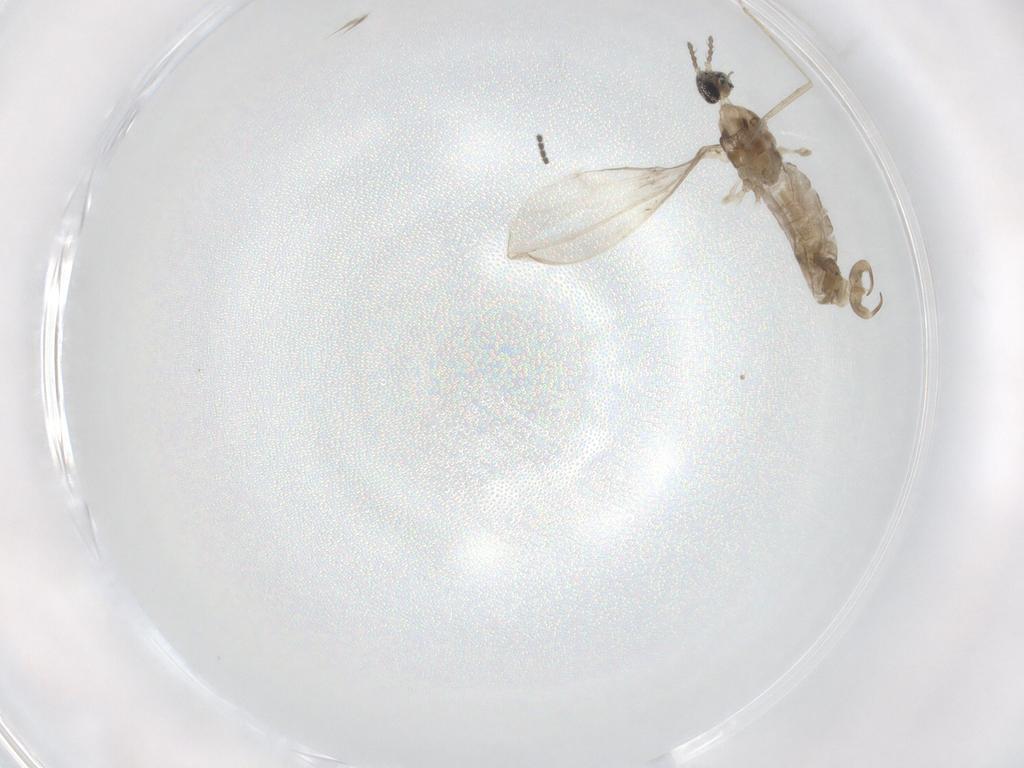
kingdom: Animalia
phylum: Arthropoda
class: Insecta
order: Diptera
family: Cecidomyiidae
